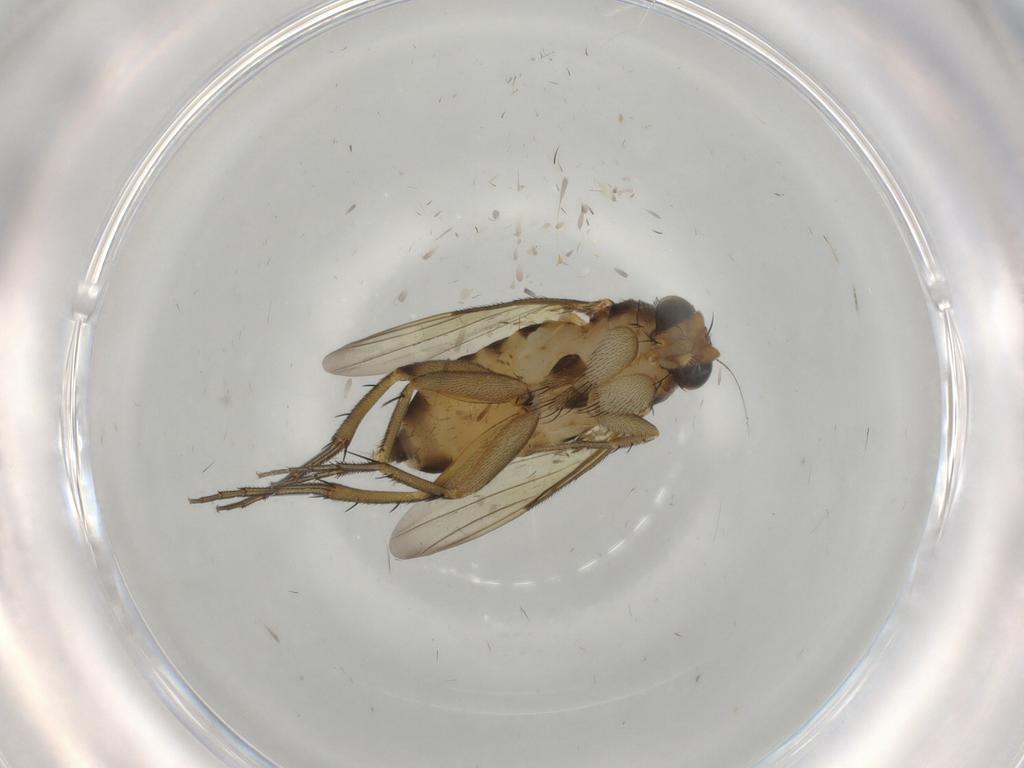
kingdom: Animalia
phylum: Arthropoda
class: Insecta
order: Diptera
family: Phoridae
